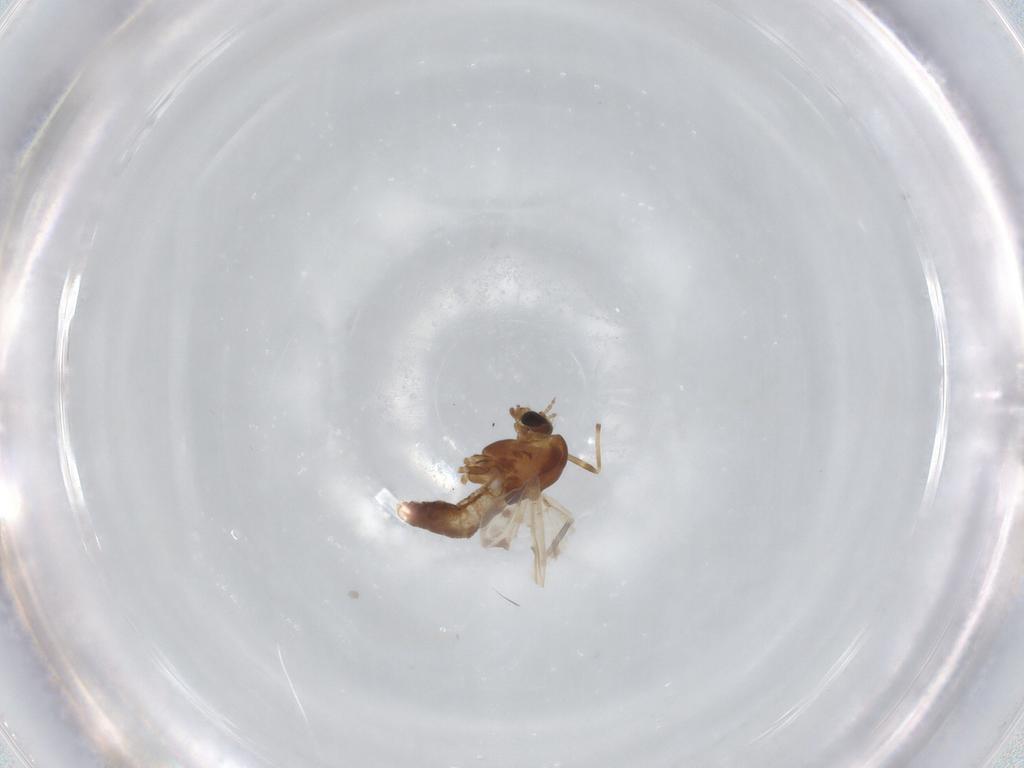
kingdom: Animalia
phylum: Arthropoda
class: Insecta
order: Diptera
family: Chironomidae
